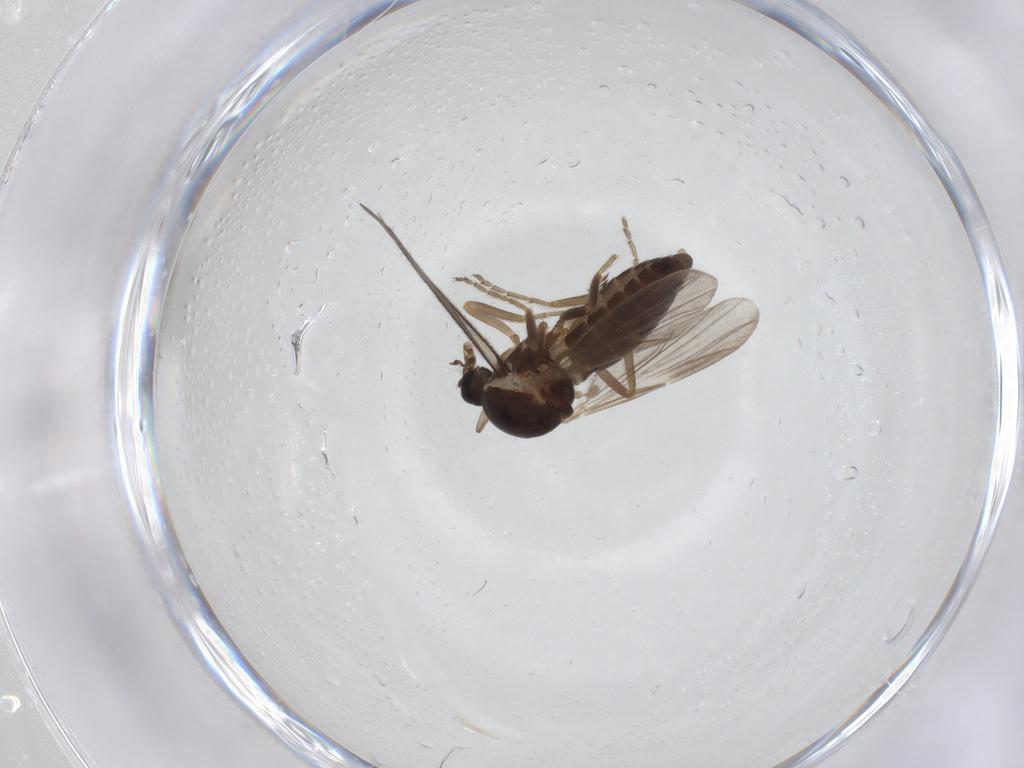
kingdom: Animalia
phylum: Arthropoda
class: Insecta
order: Diptera
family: Ceratopogonidae
